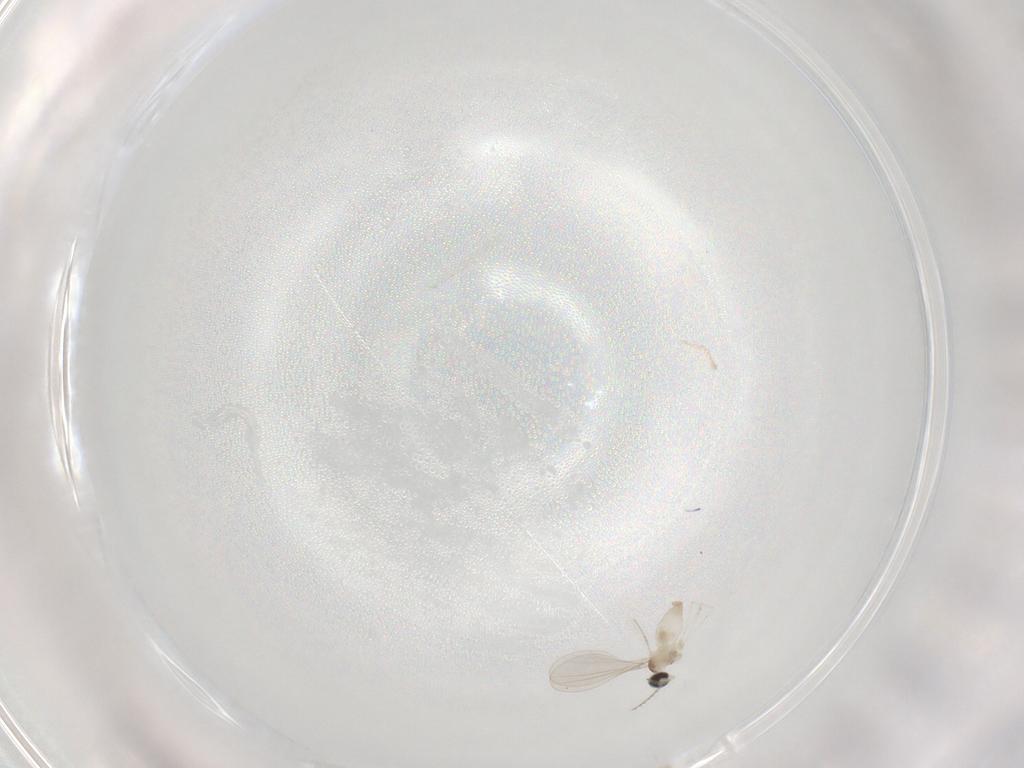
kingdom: Animalia
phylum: Arthropoda
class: Insecta
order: Diptera
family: Cecidomyiidae
